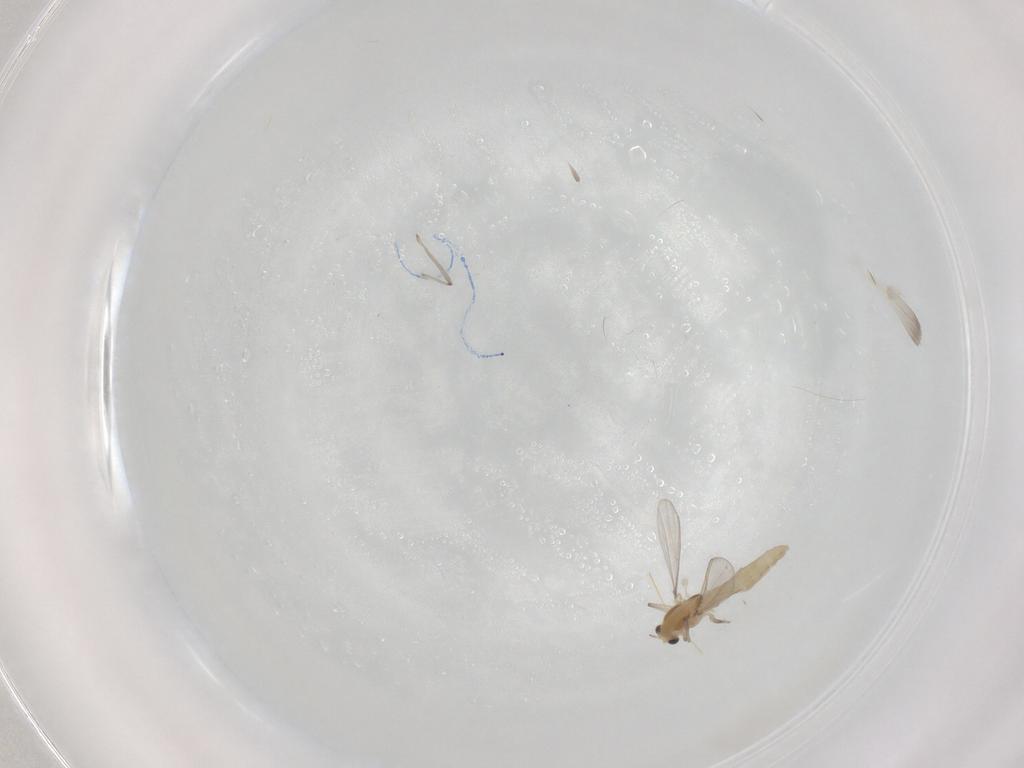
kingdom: Animalia
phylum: Arthropoda
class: Insecta
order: Diptera
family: Chironomidae
